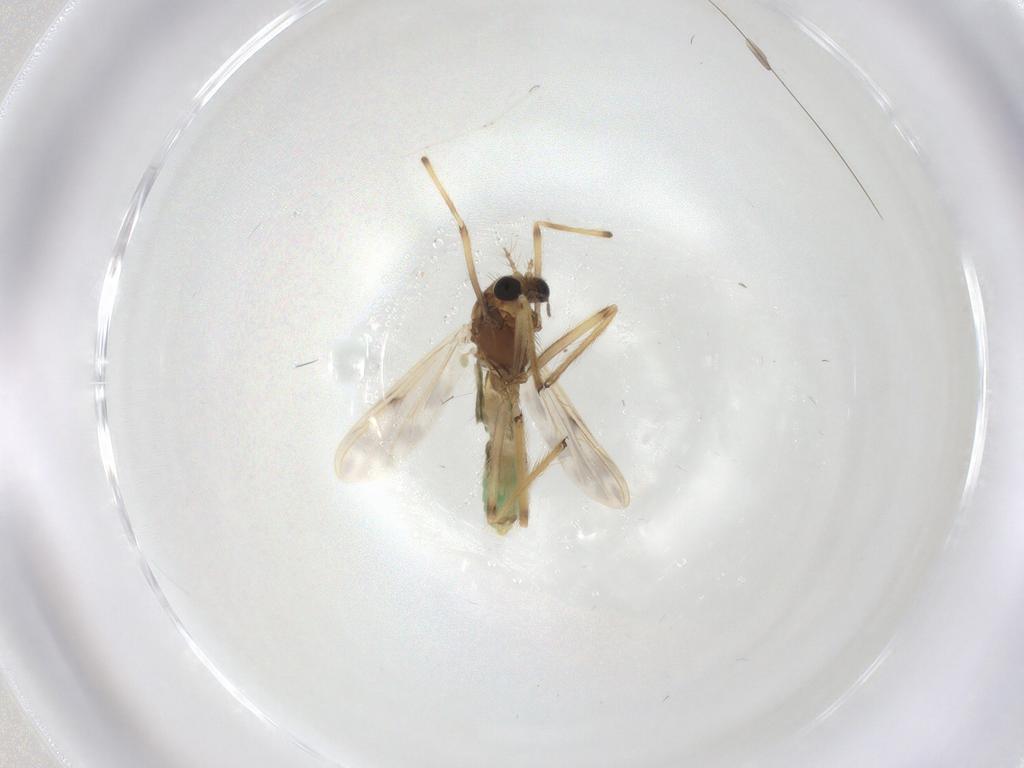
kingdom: Animalia
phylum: Arthropoda
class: Insecta
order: Diptera
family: Chironomidae
